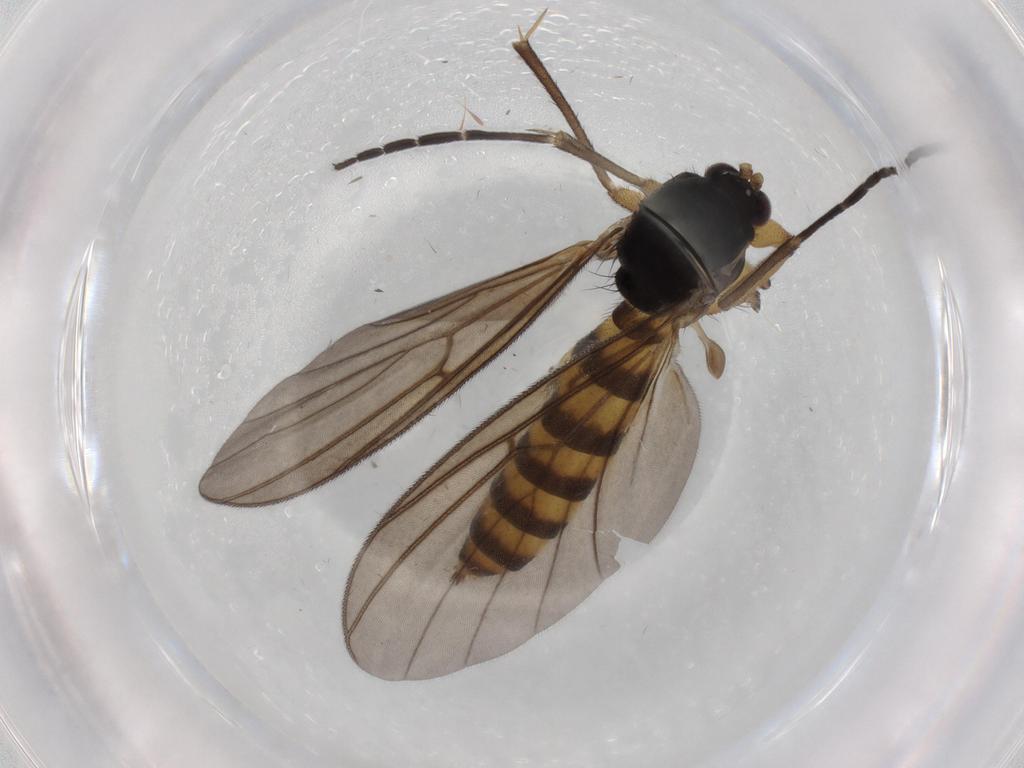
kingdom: Animalia
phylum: Arthropoda
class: Insecta
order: Diptera
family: Mycetophilidae
